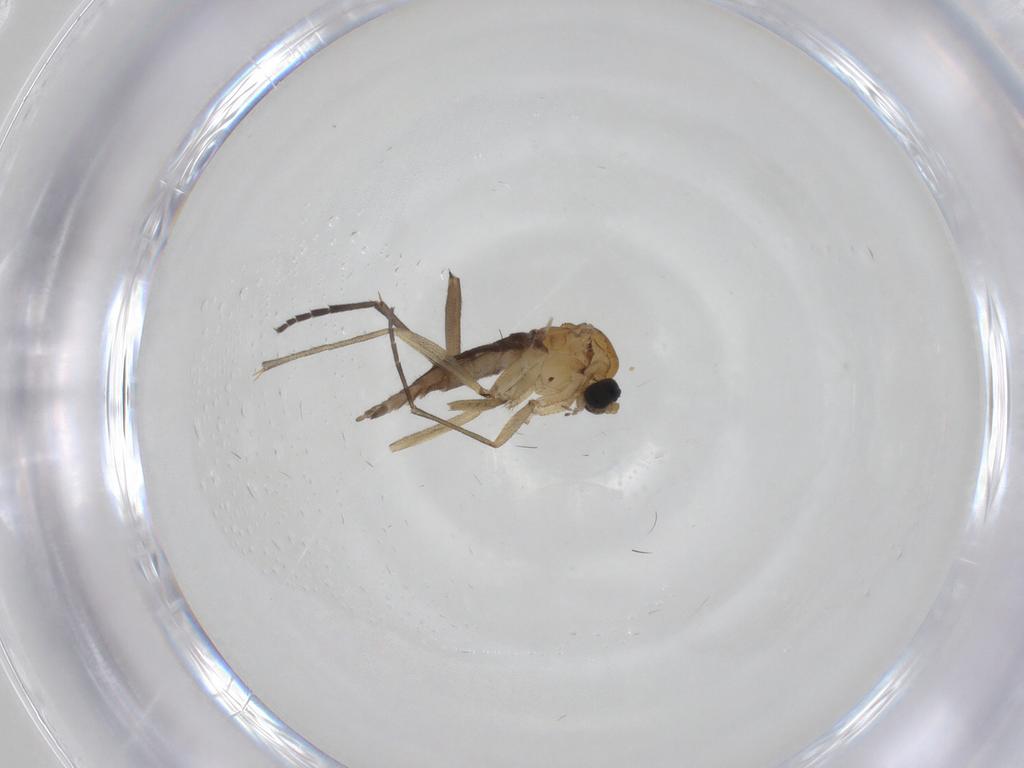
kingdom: Animalia
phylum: Arthropoda
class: Insecta
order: Diptera
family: Sciaridae
